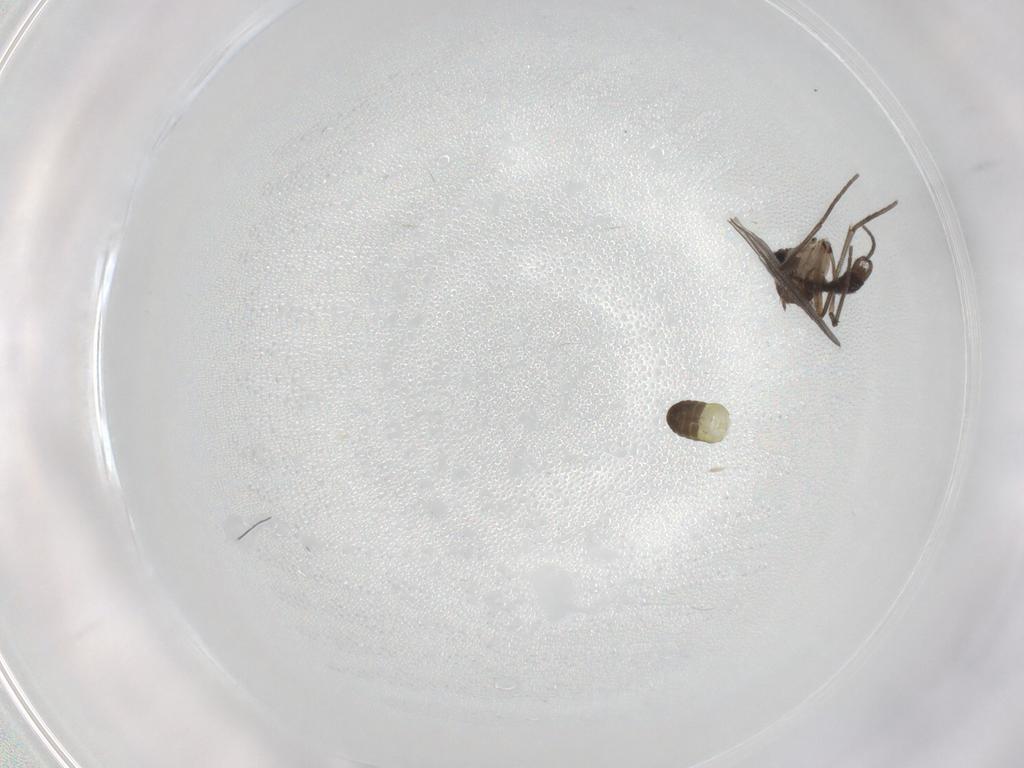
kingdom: Animalia
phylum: Arthropoda
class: Insecta
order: Diptera
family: Ceratopogonidae
